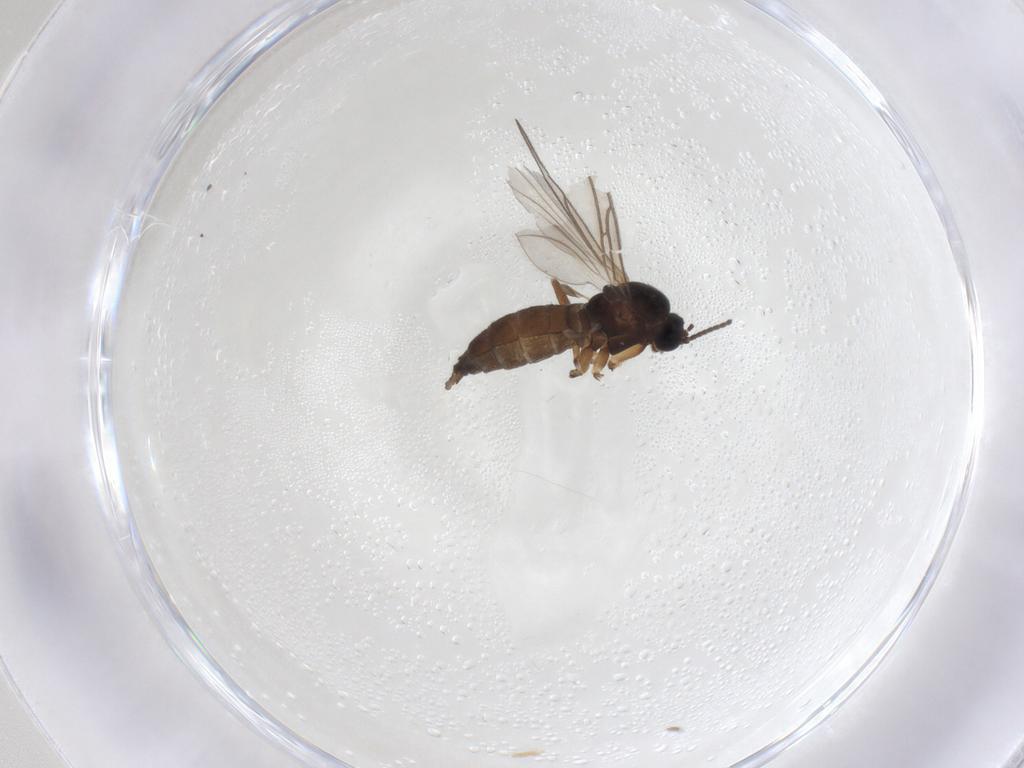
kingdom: Animalia
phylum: Arthropoda
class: Insecta
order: Diptera
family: Sciaridae
